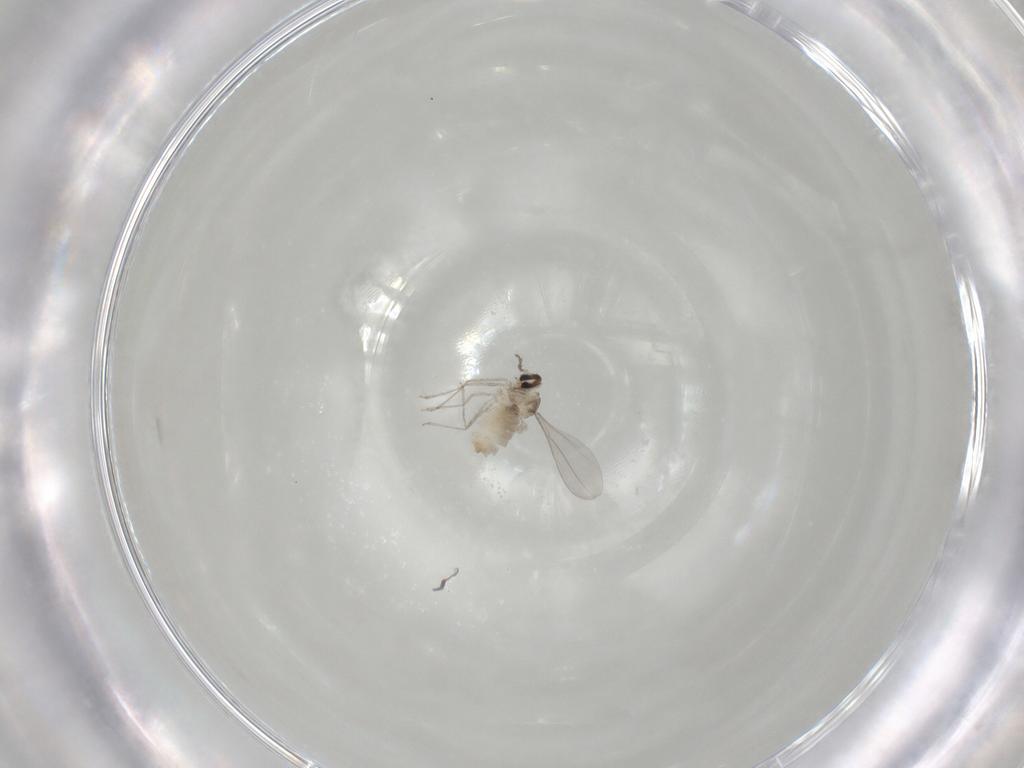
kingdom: Animalia
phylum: Arthropoda
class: Insecta
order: Diptera
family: Cecidomyiidae
